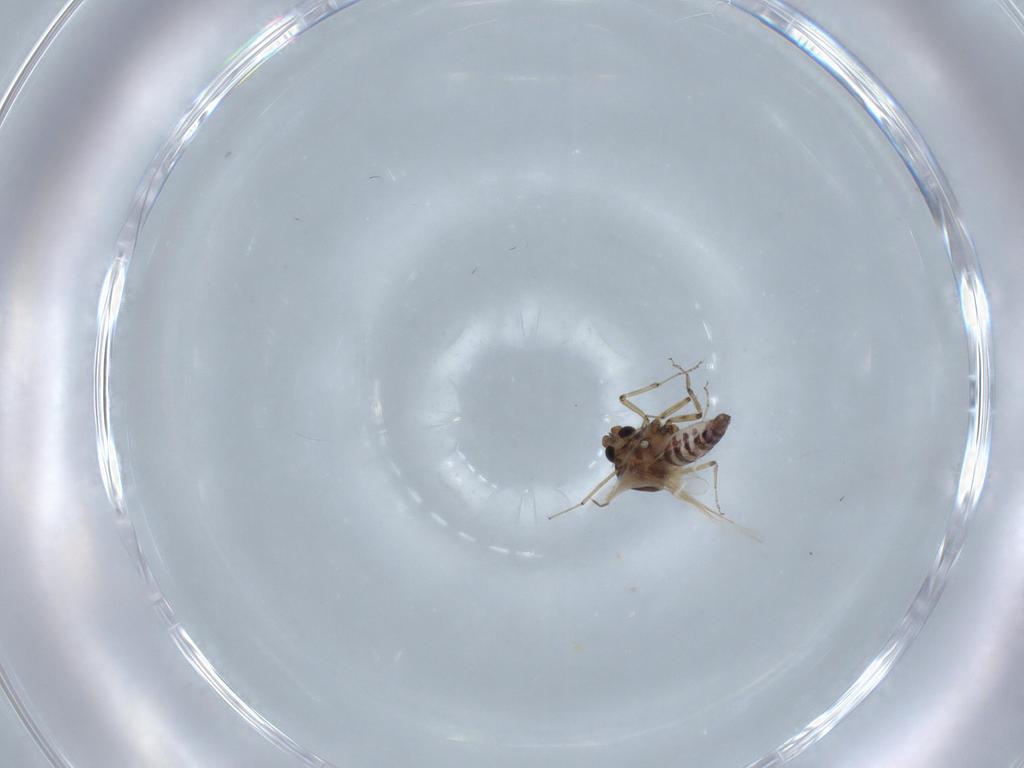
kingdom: Animalia
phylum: Arthropoda
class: Insecta
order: Diptera
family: Ceratopogonidae
